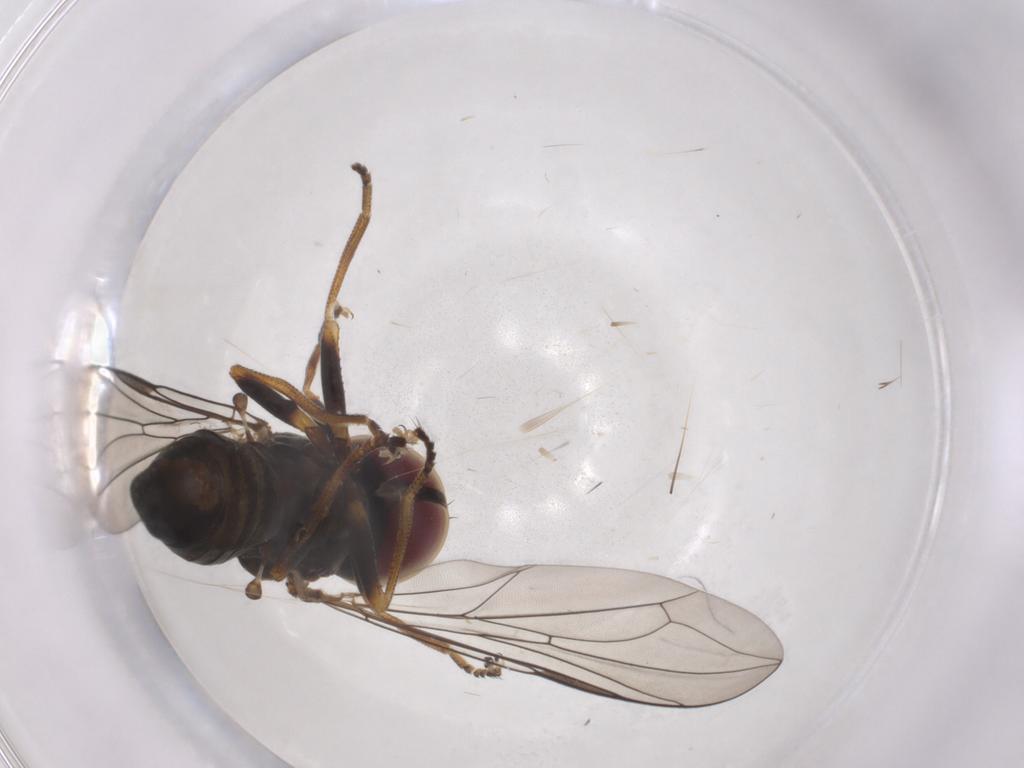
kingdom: Animalia
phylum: Arthropoda
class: Insecta
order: Diptera
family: Pipunculidae
